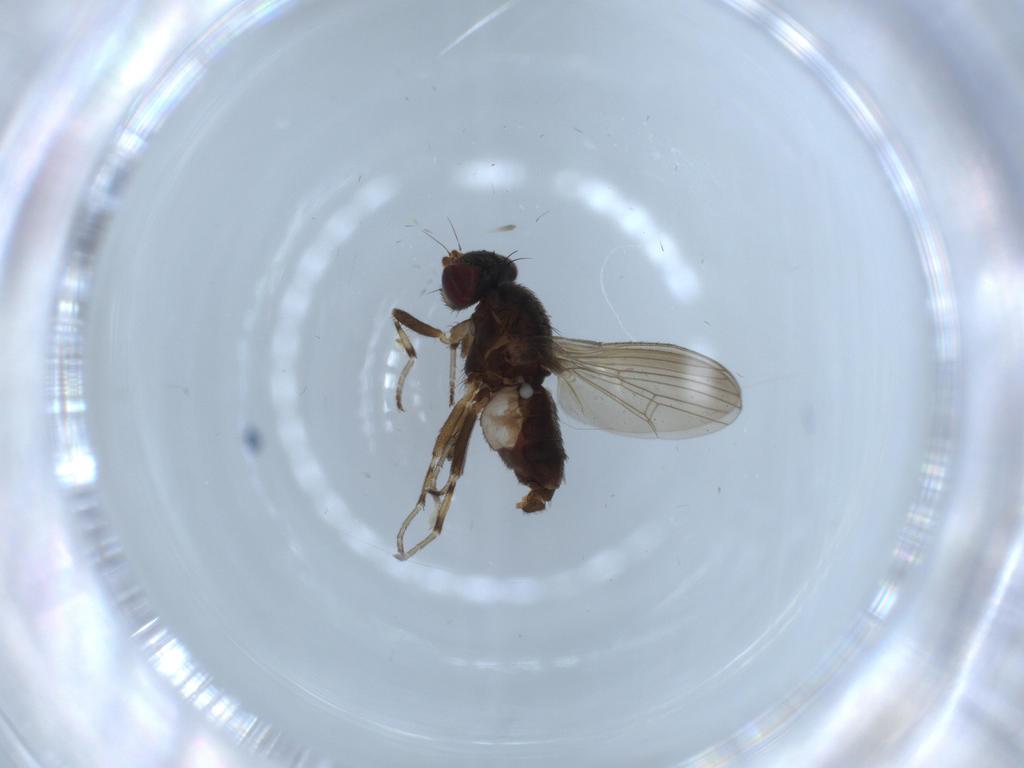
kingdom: Animalia
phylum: Arthropoda
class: Insecta
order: Diptera
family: Heleomyzidae
